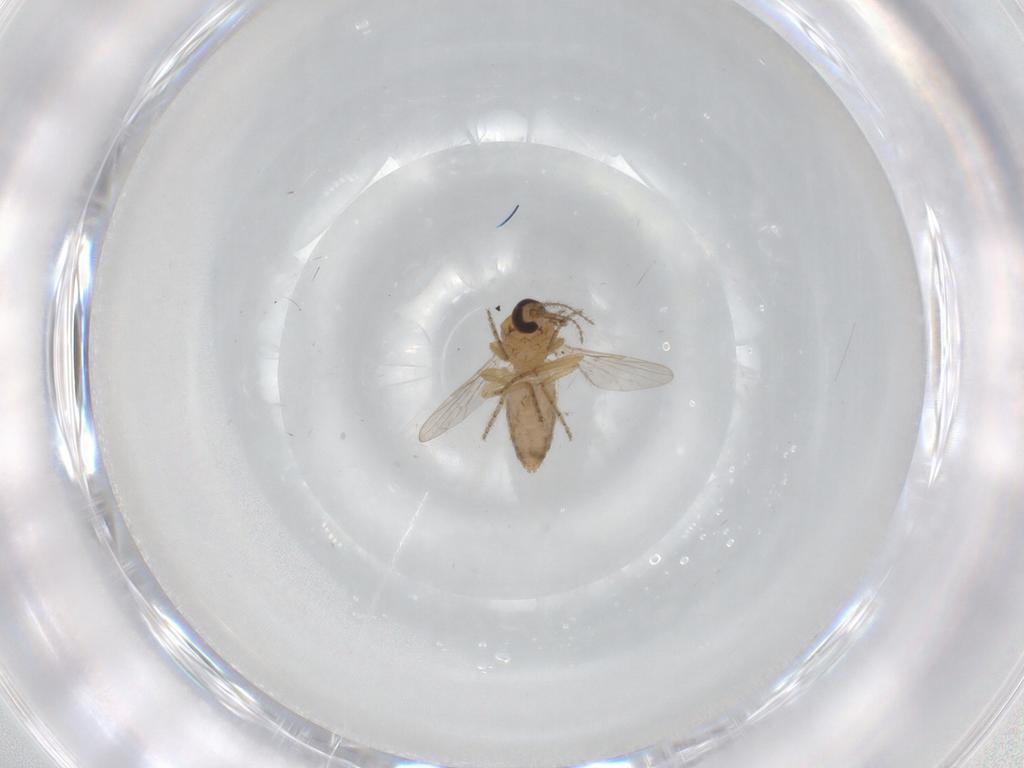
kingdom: Animalia
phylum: Arthropoda
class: Insecta
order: Diptera
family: Ceratopogonidae
